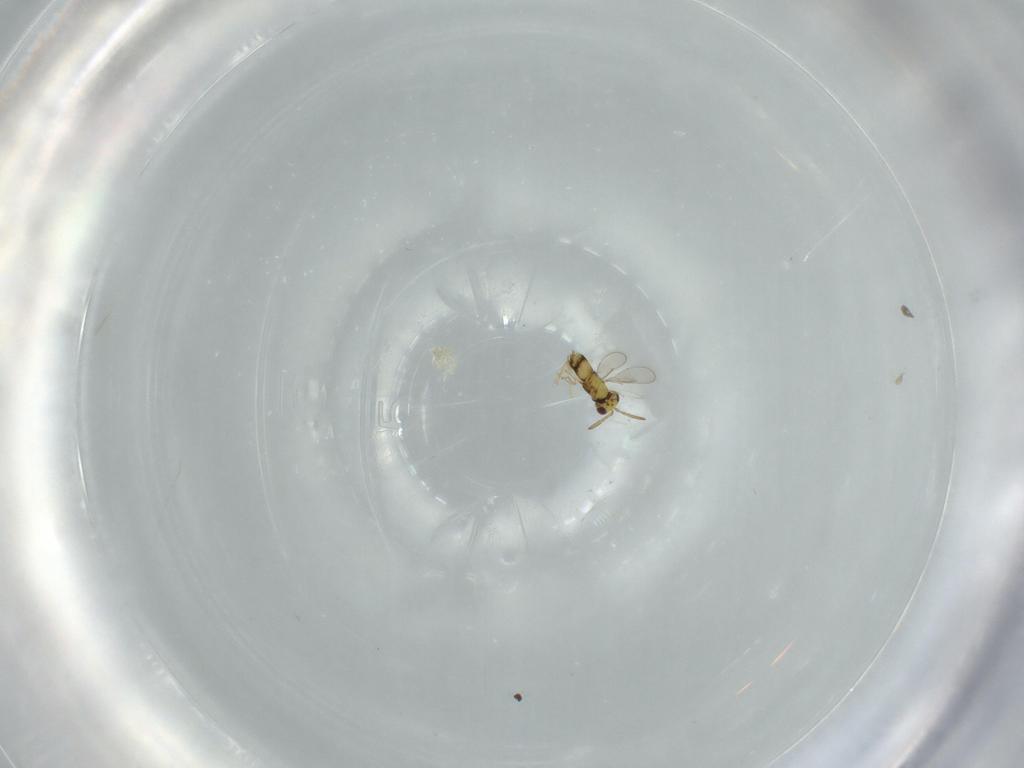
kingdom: Animalia
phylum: Arthropoda
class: Insecta
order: Hymenoptera
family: Aphelinidae
